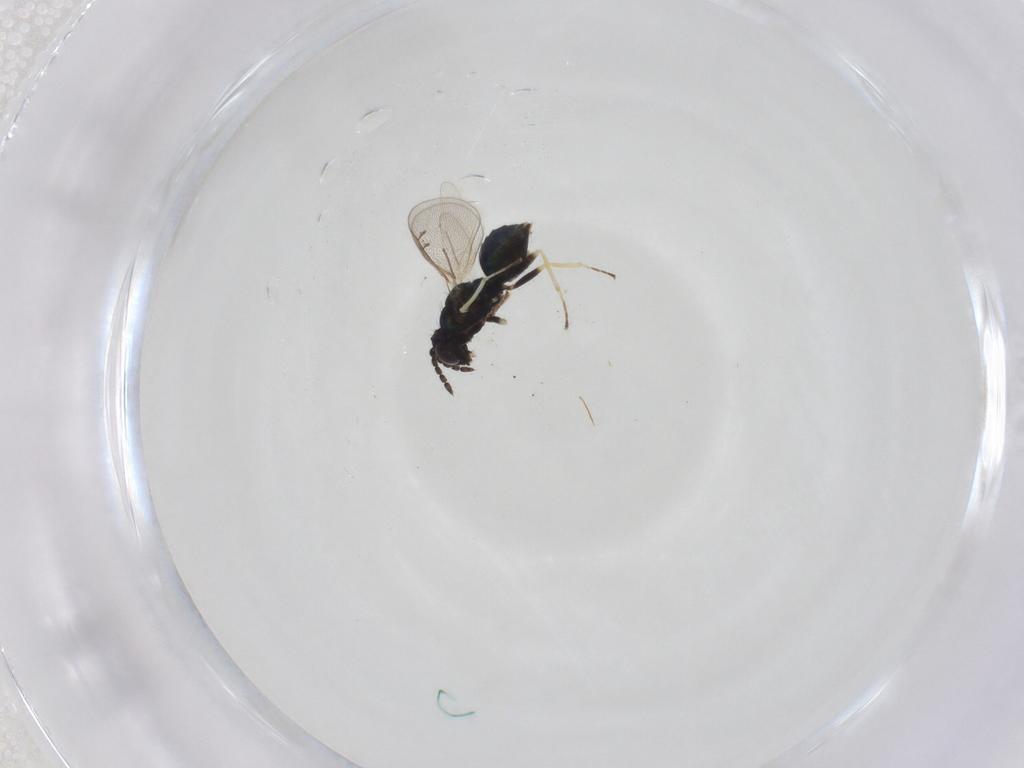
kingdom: Animalia
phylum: Arthropoda
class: Insecta
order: Hymenoptera
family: Eulophidae
